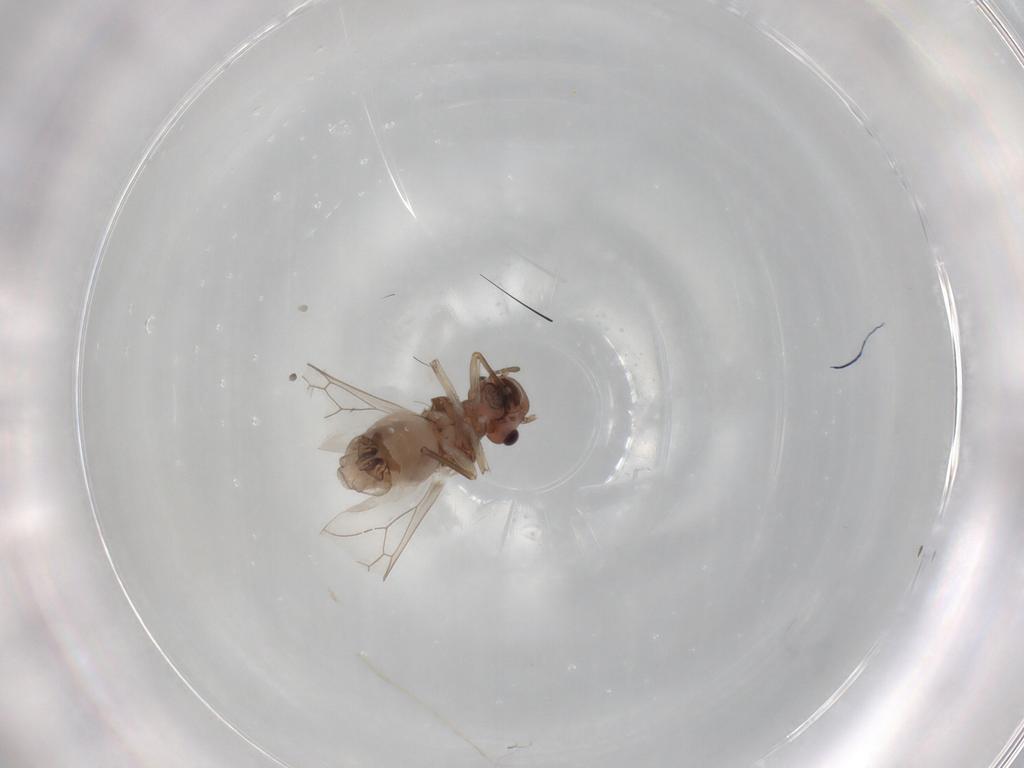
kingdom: Animalia
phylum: Arthropoda
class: Insecta
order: Psocodea
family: Peripsocidae
